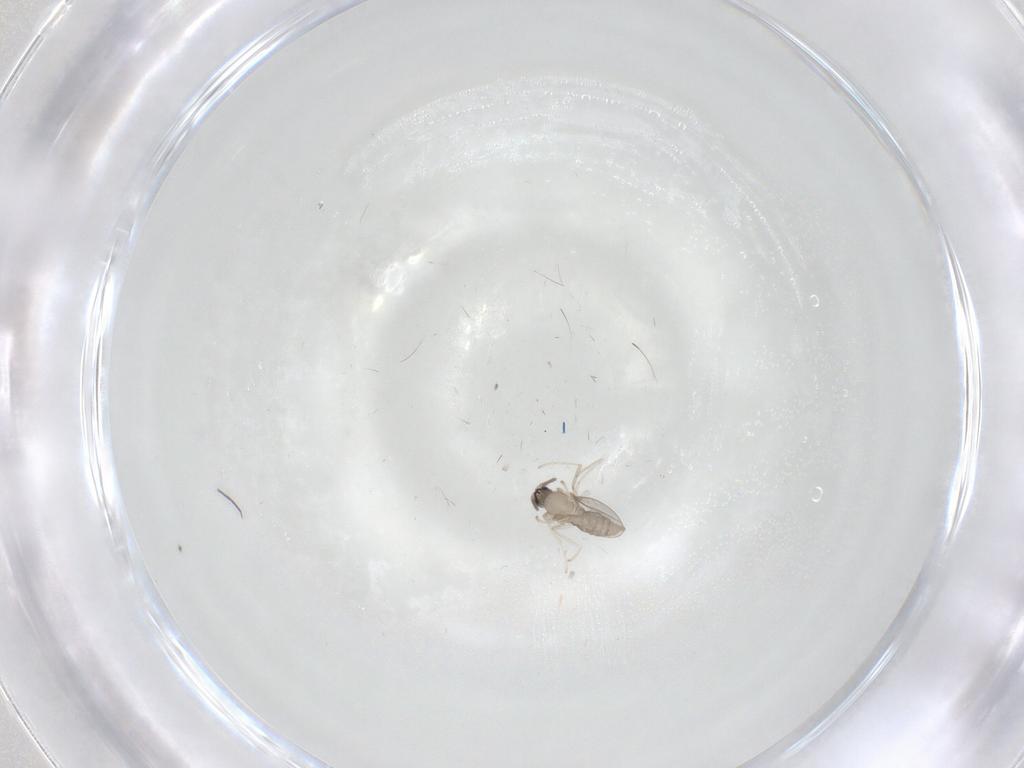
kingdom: Animalia
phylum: Arthropoda
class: Insecta
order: Diptera
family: Cecidomyiidae
